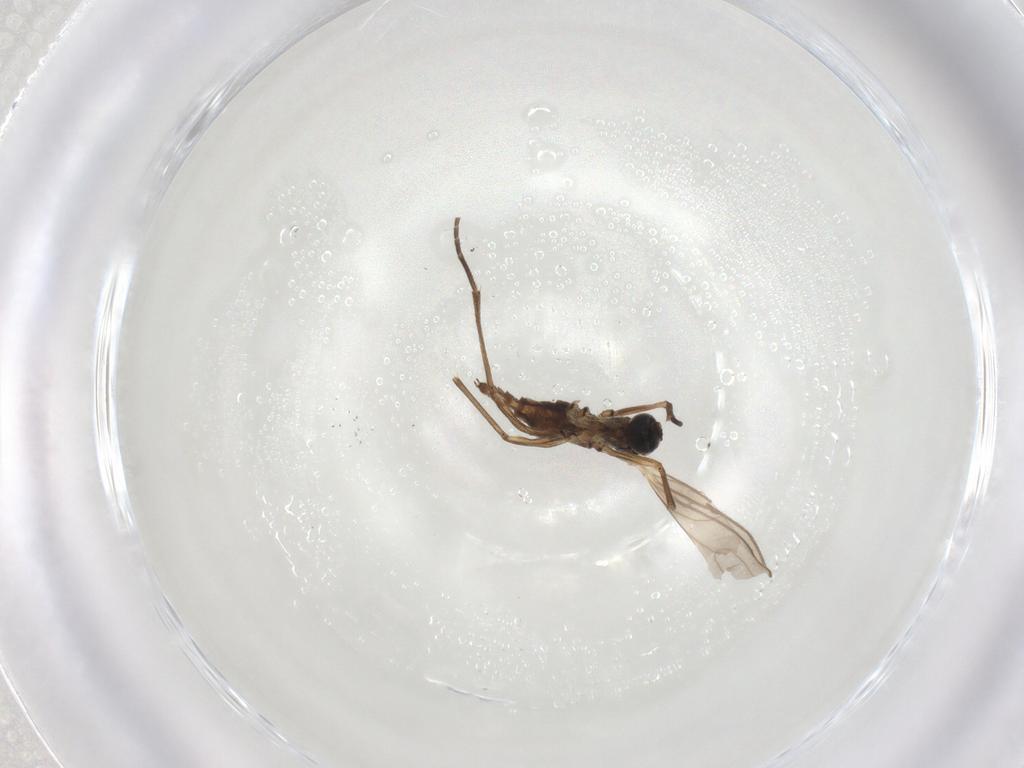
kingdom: Animalia
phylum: Arthropoda
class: Insecta
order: Diptera
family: Sciaridae
